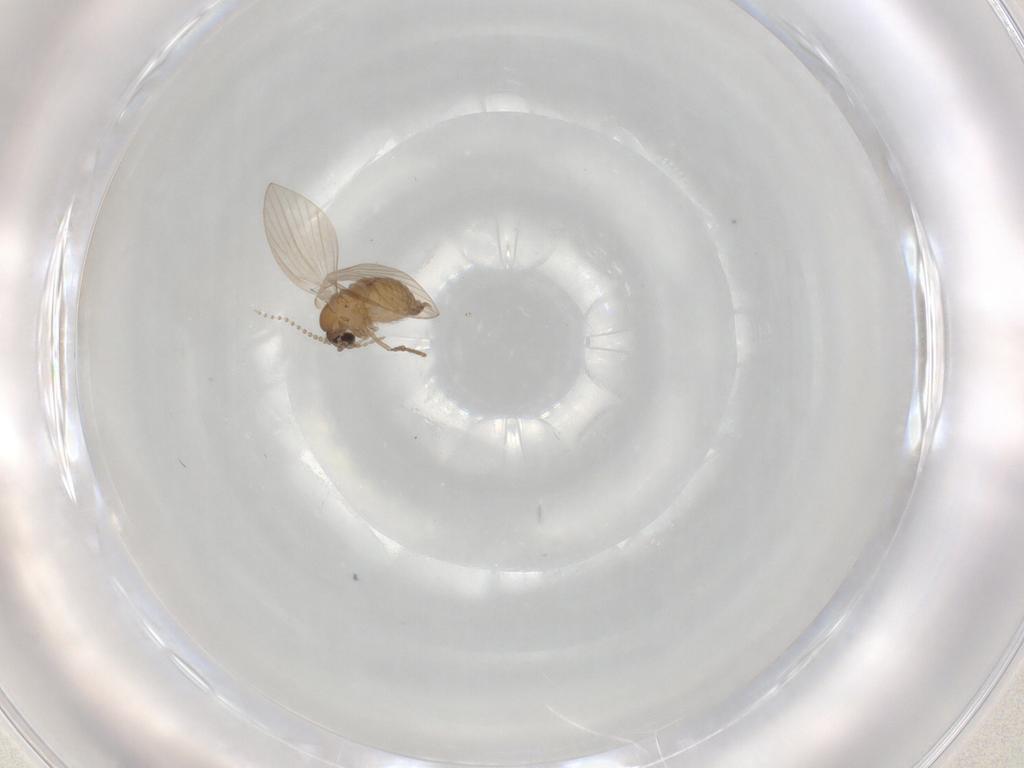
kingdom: Animalia
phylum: Arthropoda
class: Insecta
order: Diptera
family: Psychodidae
